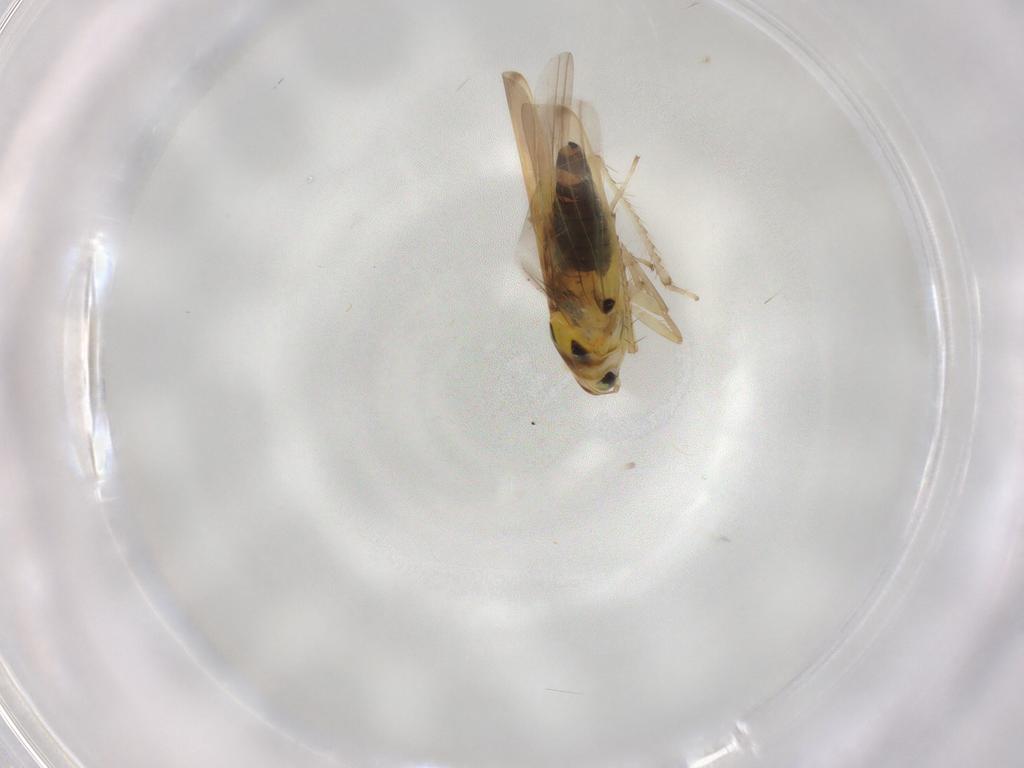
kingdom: Animalia
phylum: Arthropoda
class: Insecta
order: Hemiptera
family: Cicadellidae
